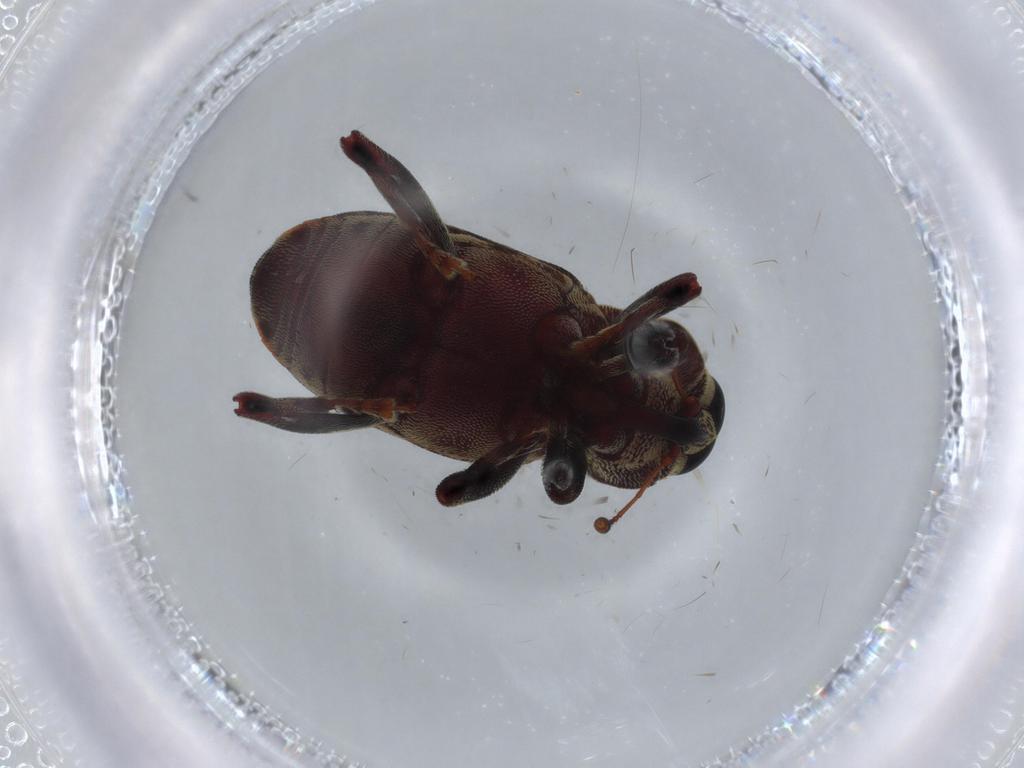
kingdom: Animalia
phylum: Arthropoda
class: Insecta
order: Coleoptera
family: Curculionidae
